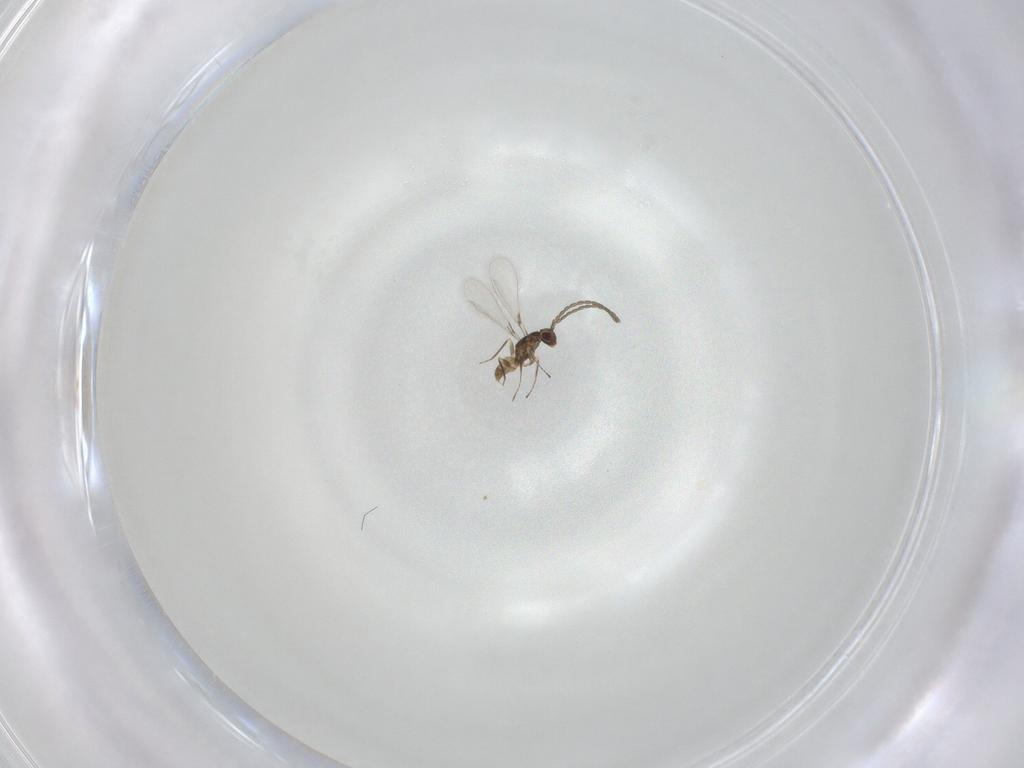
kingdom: Animalia
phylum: Arthropoda
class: Insecta
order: Hymenoptera
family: Mymaridae
